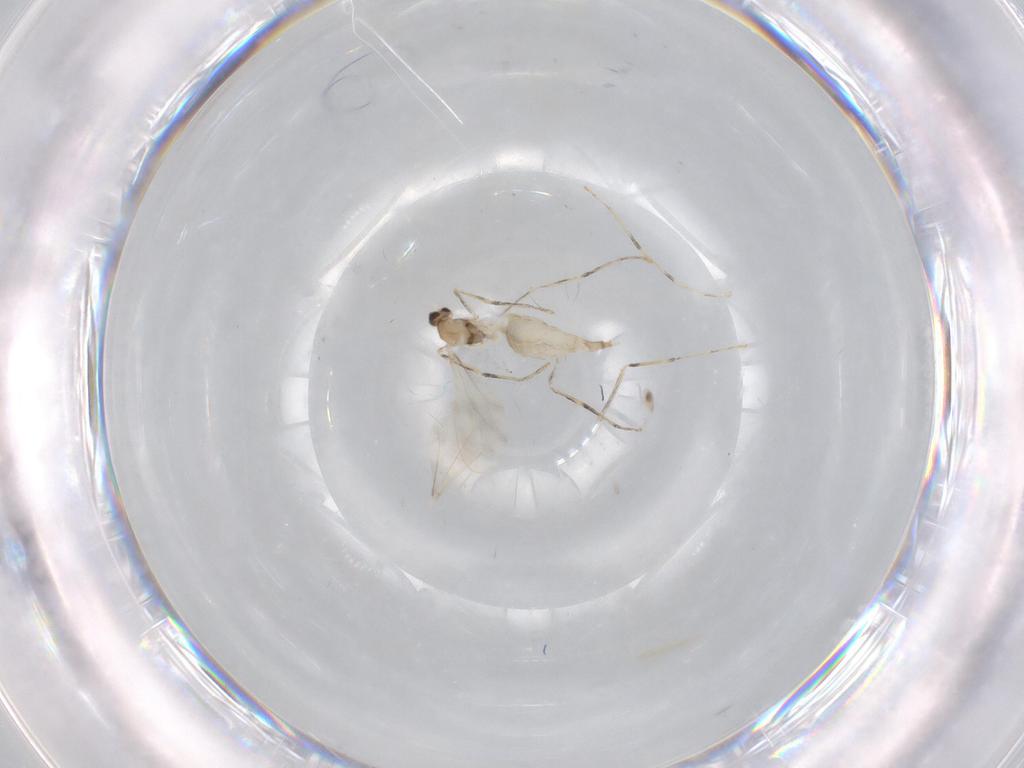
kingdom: Animalia
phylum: Arthropoda
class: Insecta
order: Diptera
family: Cecidomyiidae
